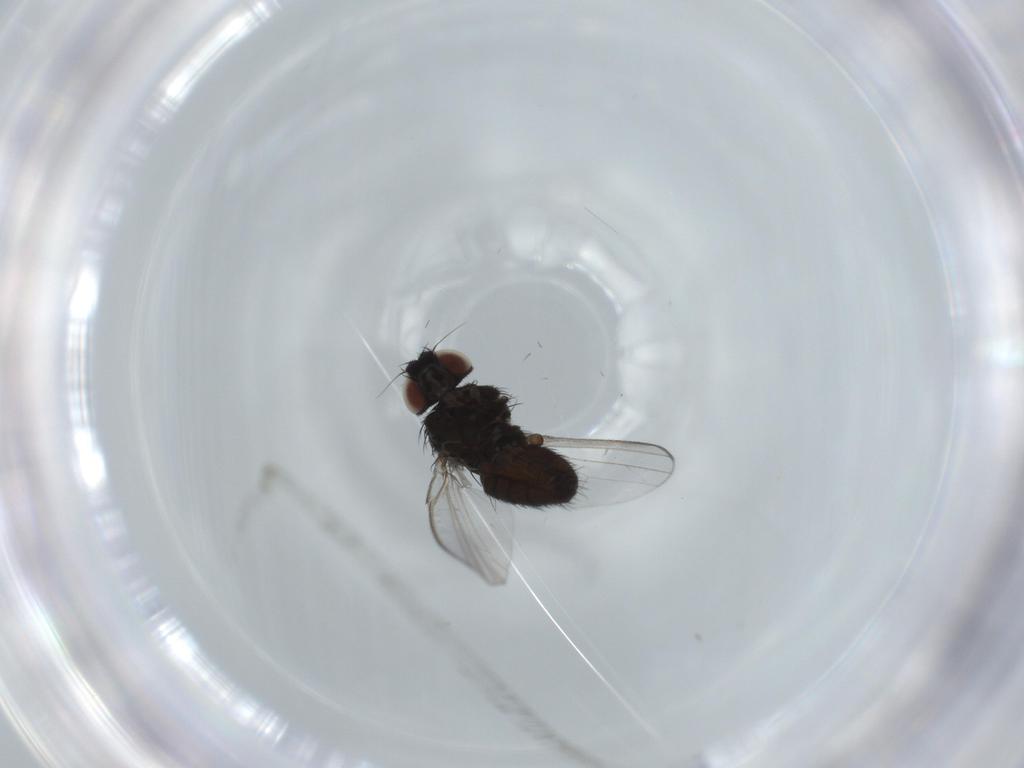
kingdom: Animalia
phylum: Arthropoda
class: Insecta
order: Diptera
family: Milichiidae
